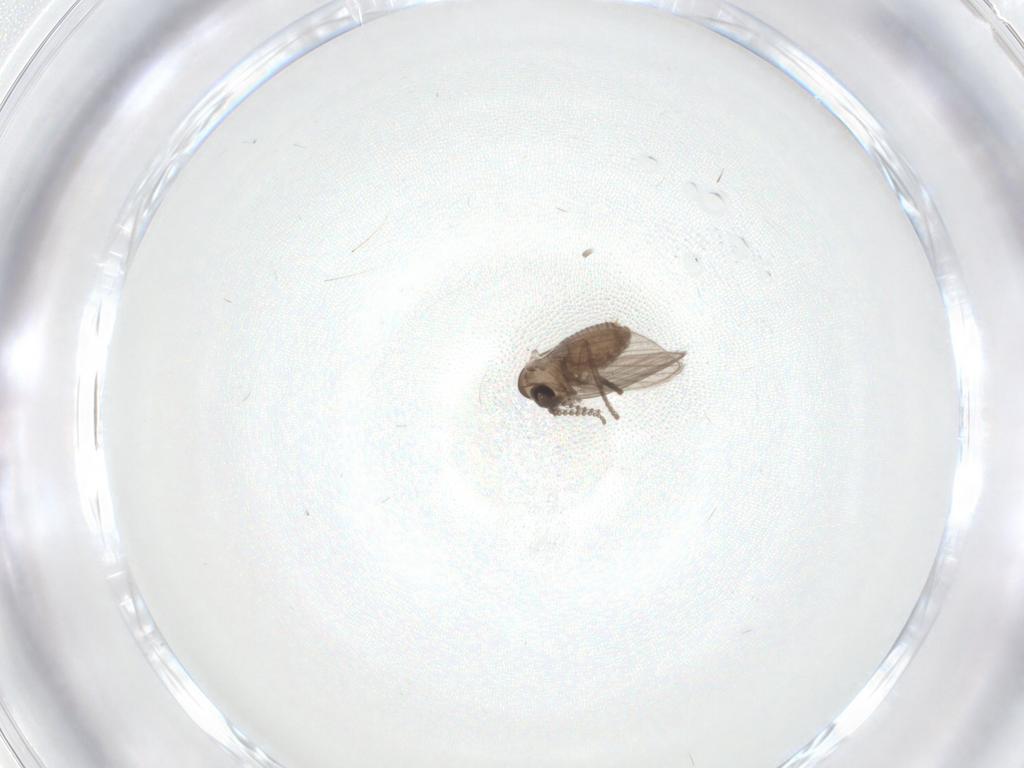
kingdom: Animalia
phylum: Arthropoda
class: Insecta
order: Diptera
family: Psychodidae
